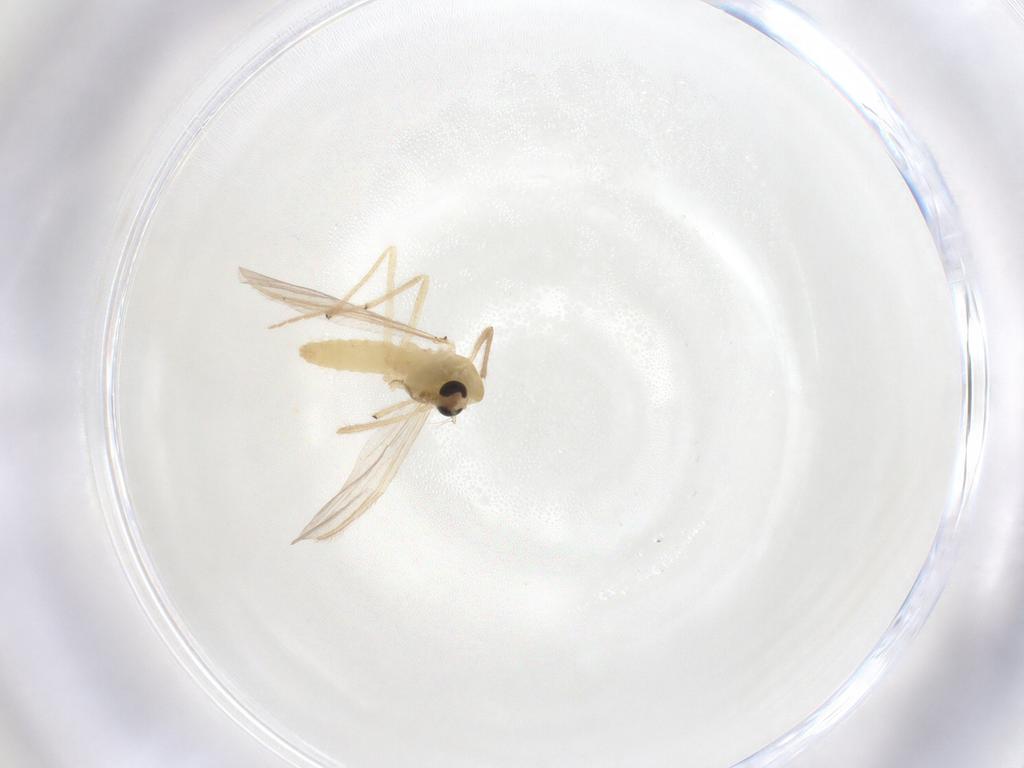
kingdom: Animalia
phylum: Arthropoda
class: Insecta
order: Diptera
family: Chironomidae
